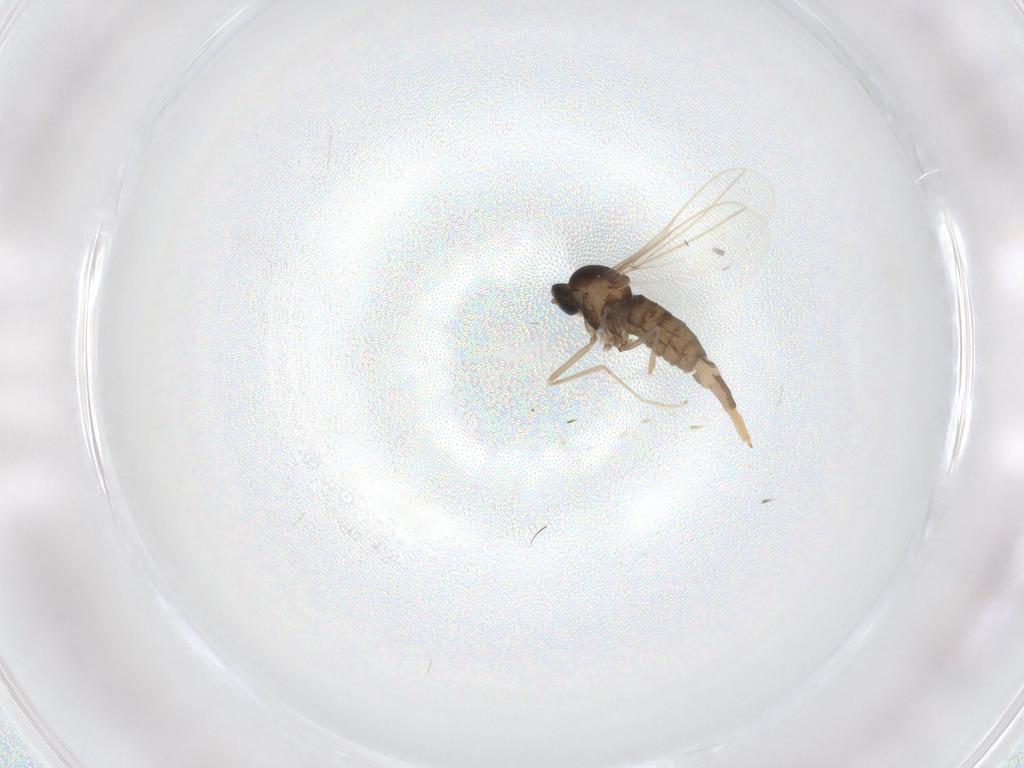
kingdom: Animalia
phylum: Arthropoda
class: Insecta
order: Diptera
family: Cecidomyiidae
